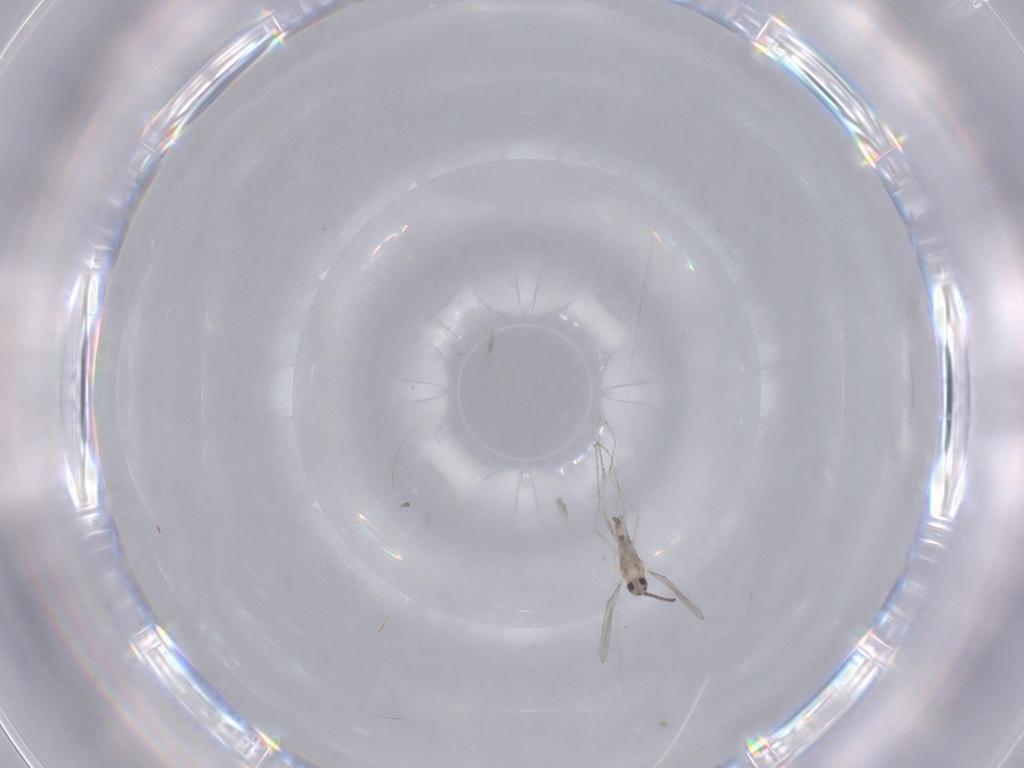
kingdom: Animalia
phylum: Arthropoda
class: Insecta
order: Diptera
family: Cecidomyiidae
